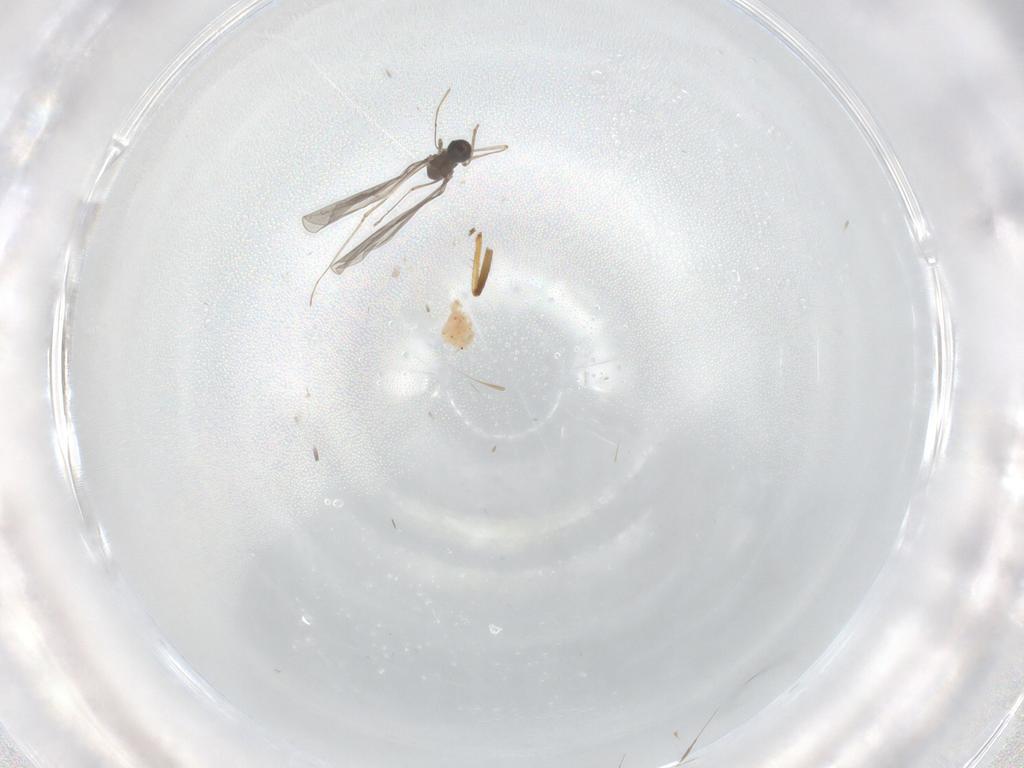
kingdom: Animalia
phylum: Arthropoda
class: Insecta
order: Diptera
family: Cecidomyiidae
